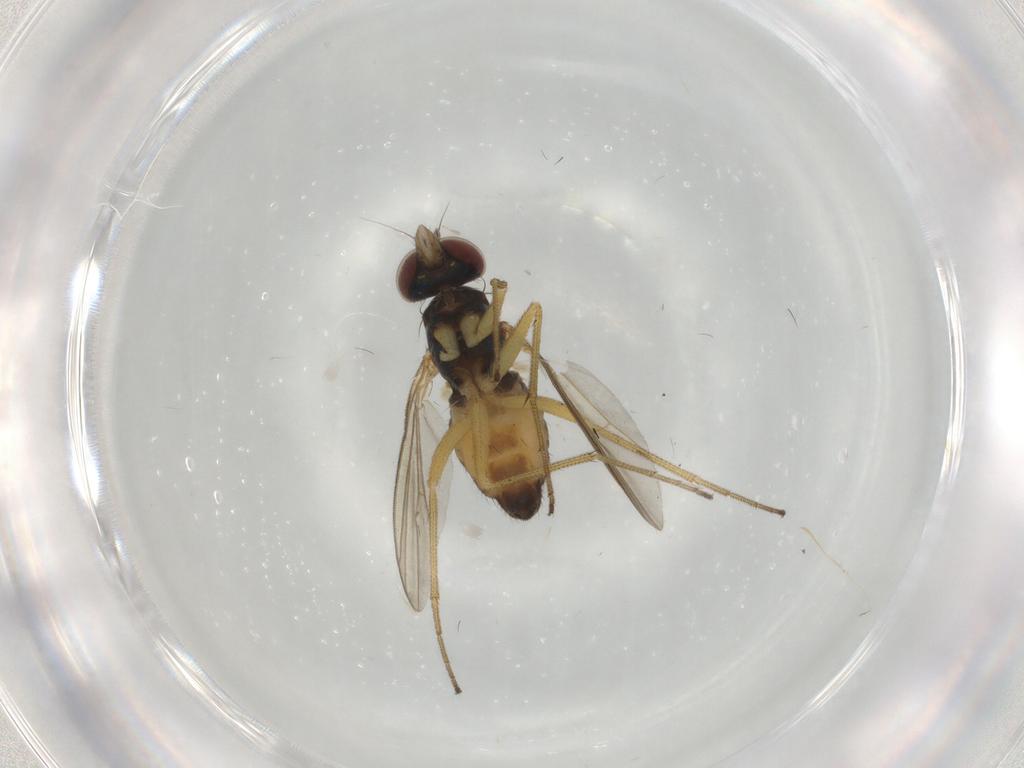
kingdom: Animalia
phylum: Arthropoda
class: Insecta
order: Diptera
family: Dolichopodidae
